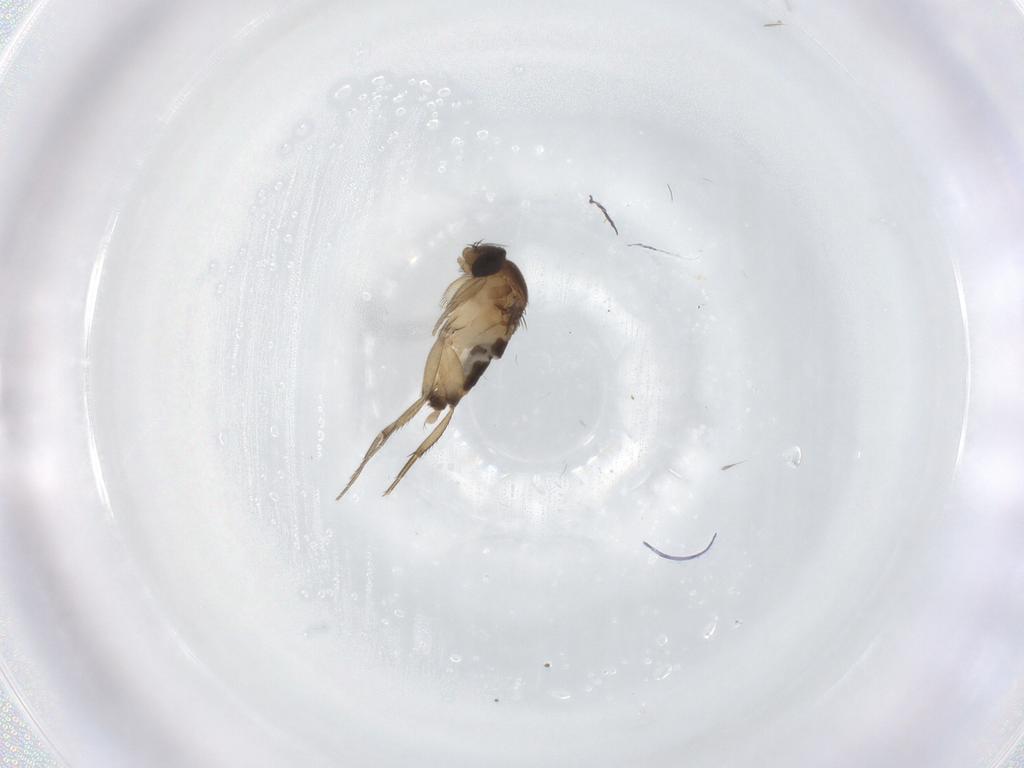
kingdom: Animalia
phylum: Arthropoda
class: Insecta
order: Diptera
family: Phoridae
